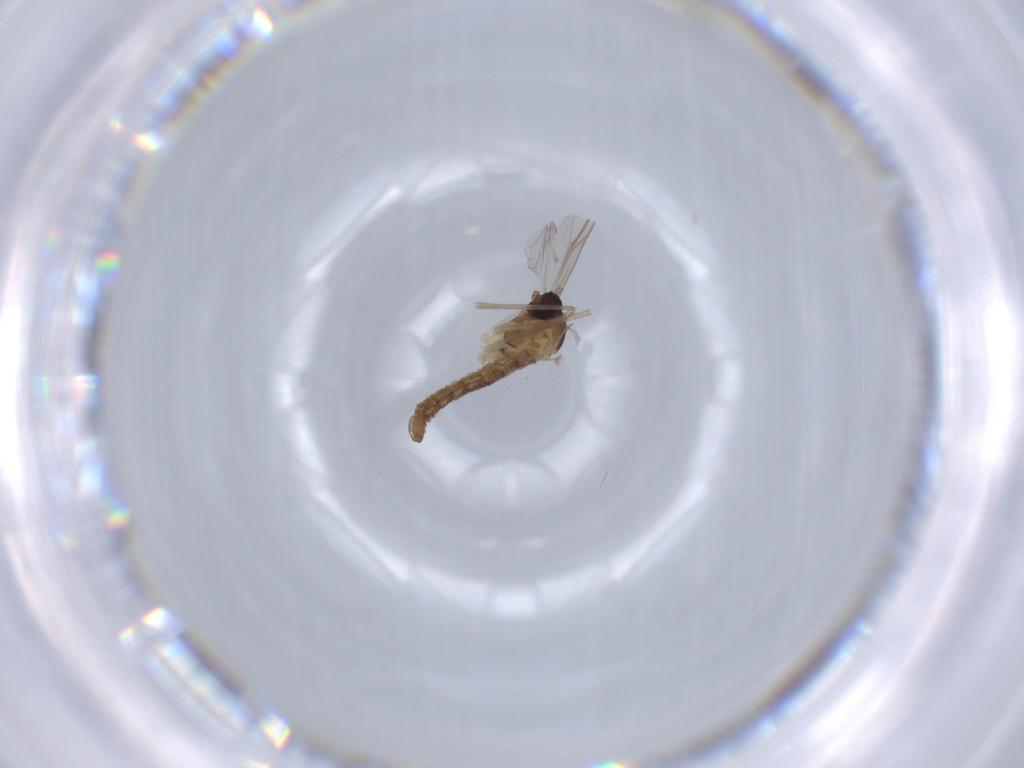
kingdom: Animalia
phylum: Arthropoda
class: Insecta
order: Diptera
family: Cecidomyiidae
